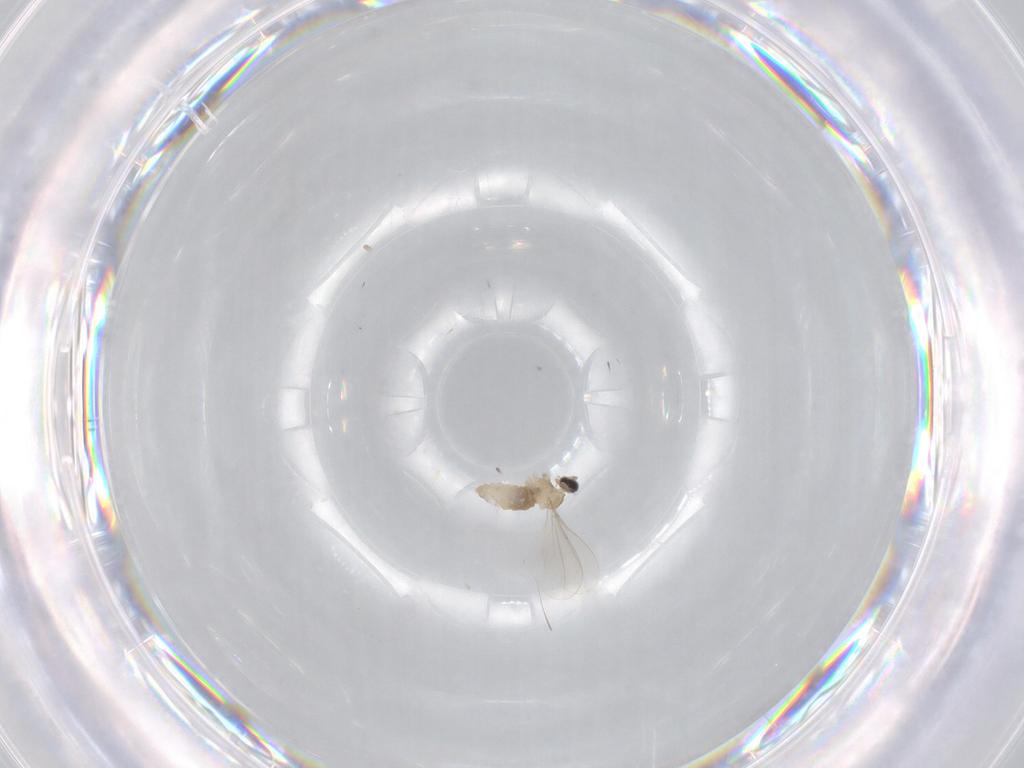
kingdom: Animalia
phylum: Arthropoda
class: Insecta
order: Diptera
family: Cecidomyiidae
